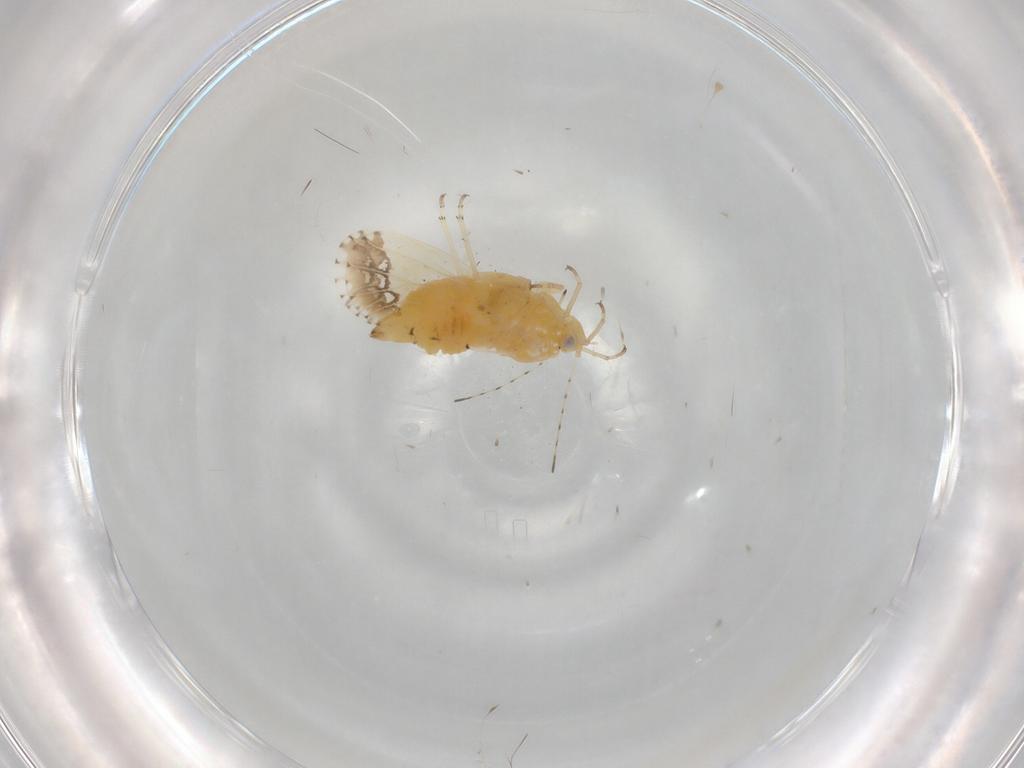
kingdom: Animalia
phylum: Arthropoda
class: Insecta
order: Hemiptera
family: Psyllidae
